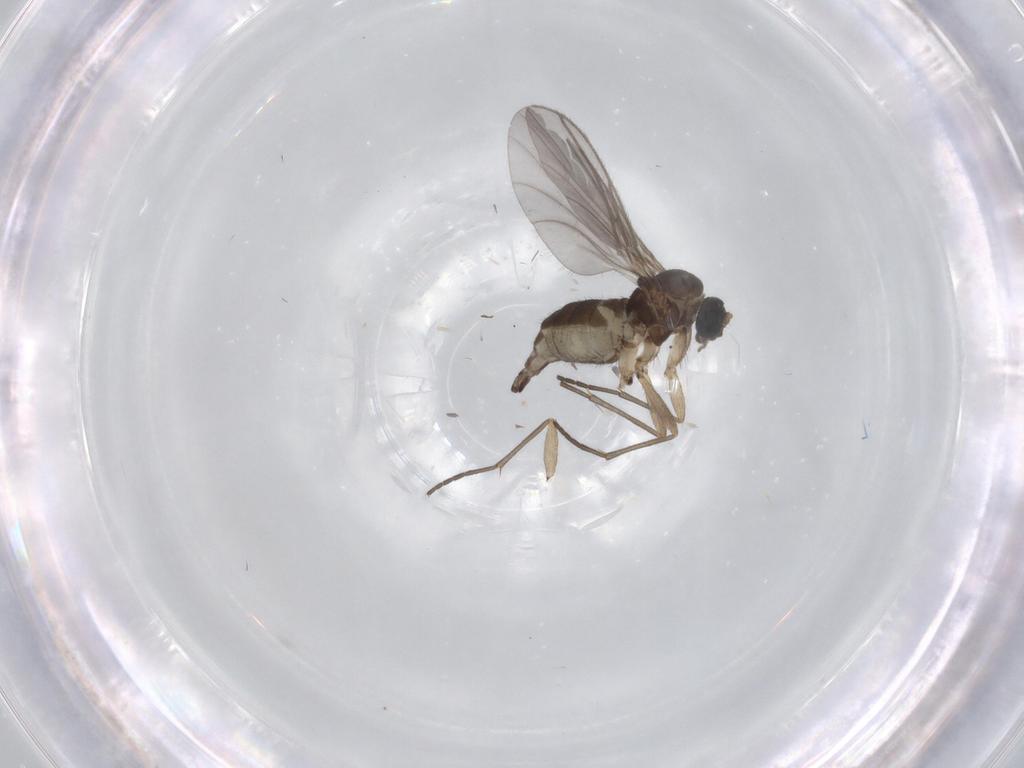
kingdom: Animalia
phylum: Arthropoda
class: Insecta
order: Diptera
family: Sciaridae
